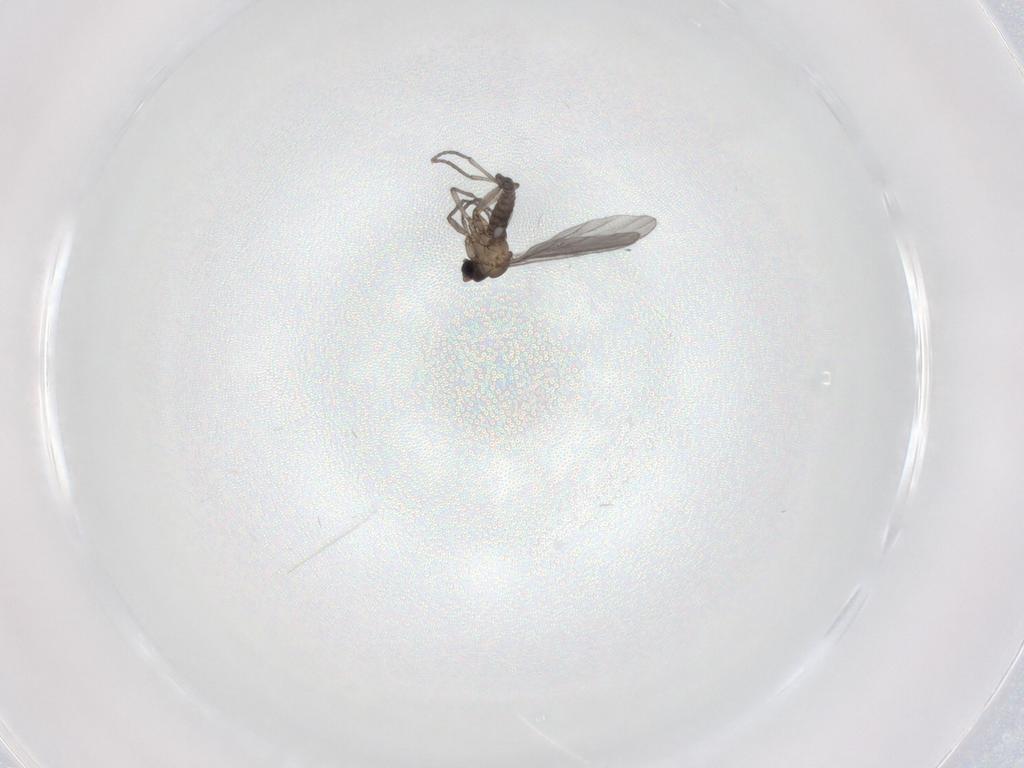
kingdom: Animalia
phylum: Arthropoda
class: Insecta
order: Diptera
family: Sciaridae
